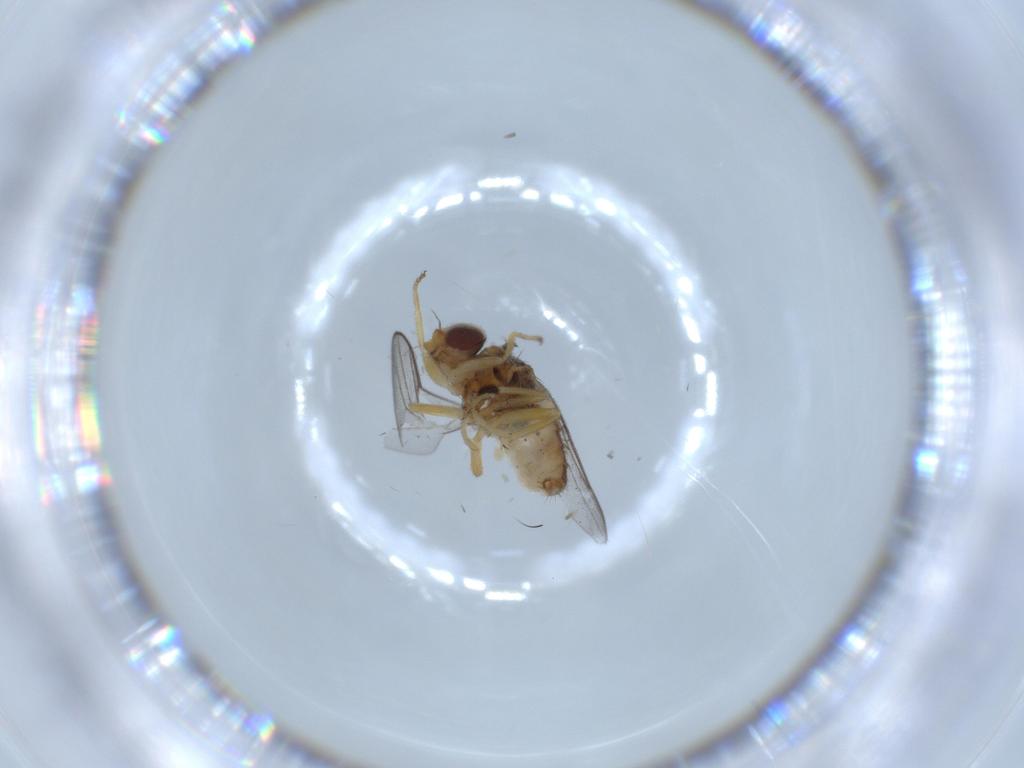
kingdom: Animalia
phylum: Arthropoda
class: Insecta
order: Diptera
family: Chloropidae
